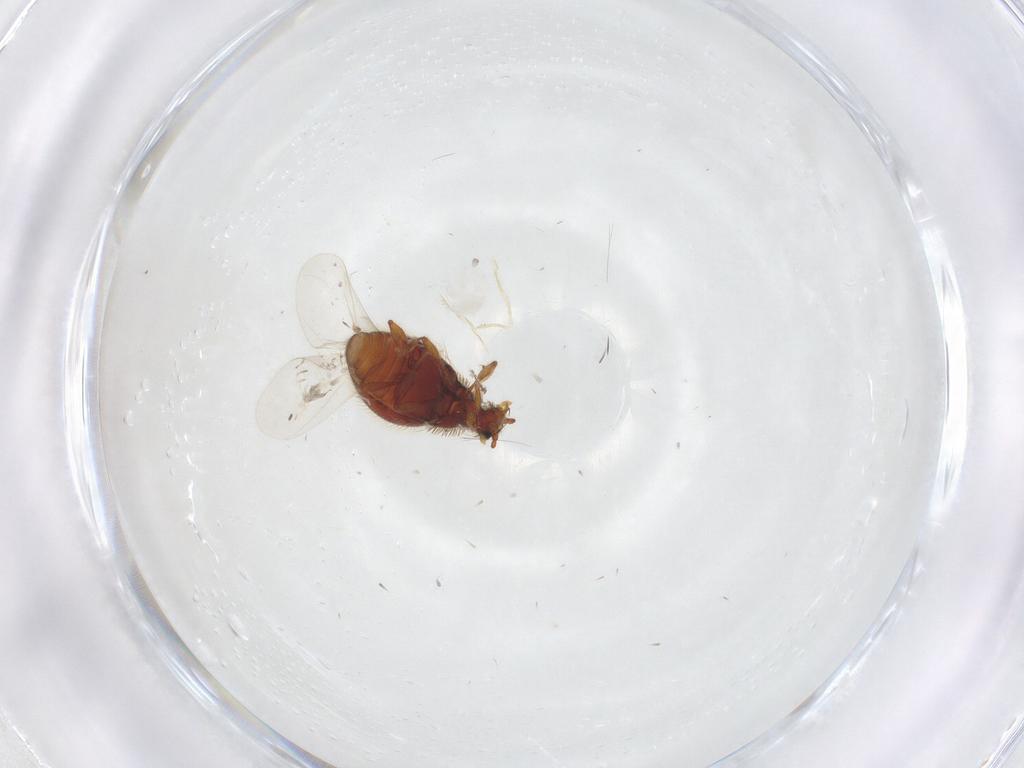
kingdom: Animalia
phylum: Arthropoda
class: Insecta
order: Coleoptera
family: Staphylinidae
